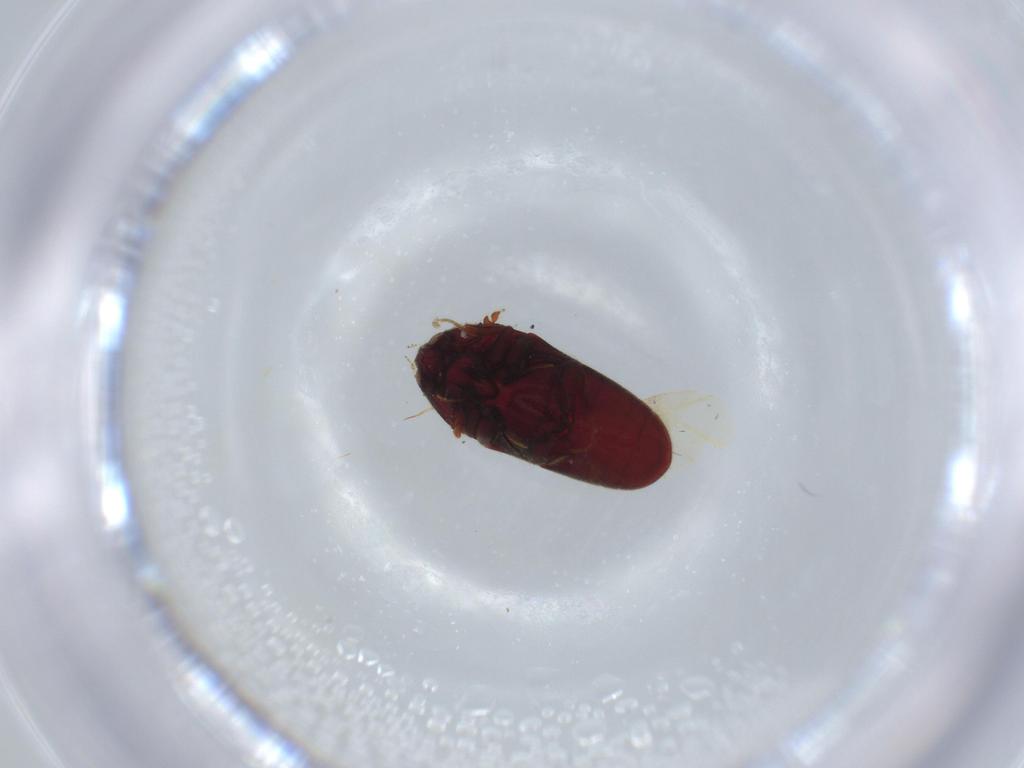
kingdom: Animalia
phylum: Arthropoda
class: Insecta
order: Coleoptera
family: Throscidae
